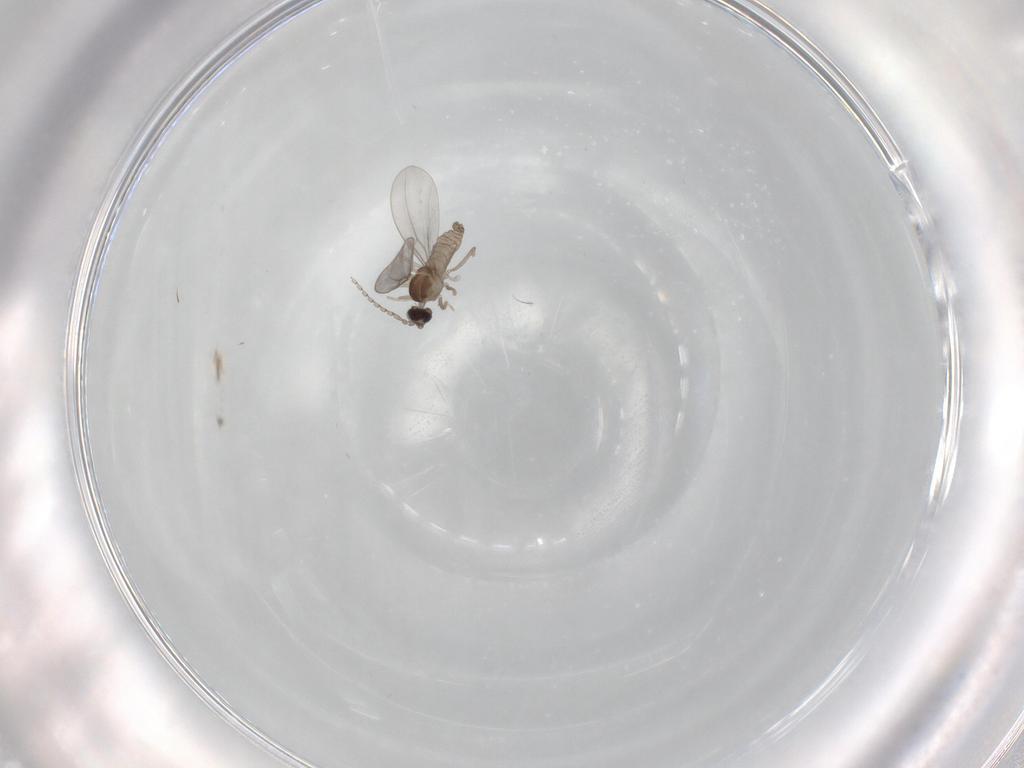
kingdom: Animalia
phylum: Arthropoda
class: Insecta
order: Diptera
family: Cecidomyiidae
